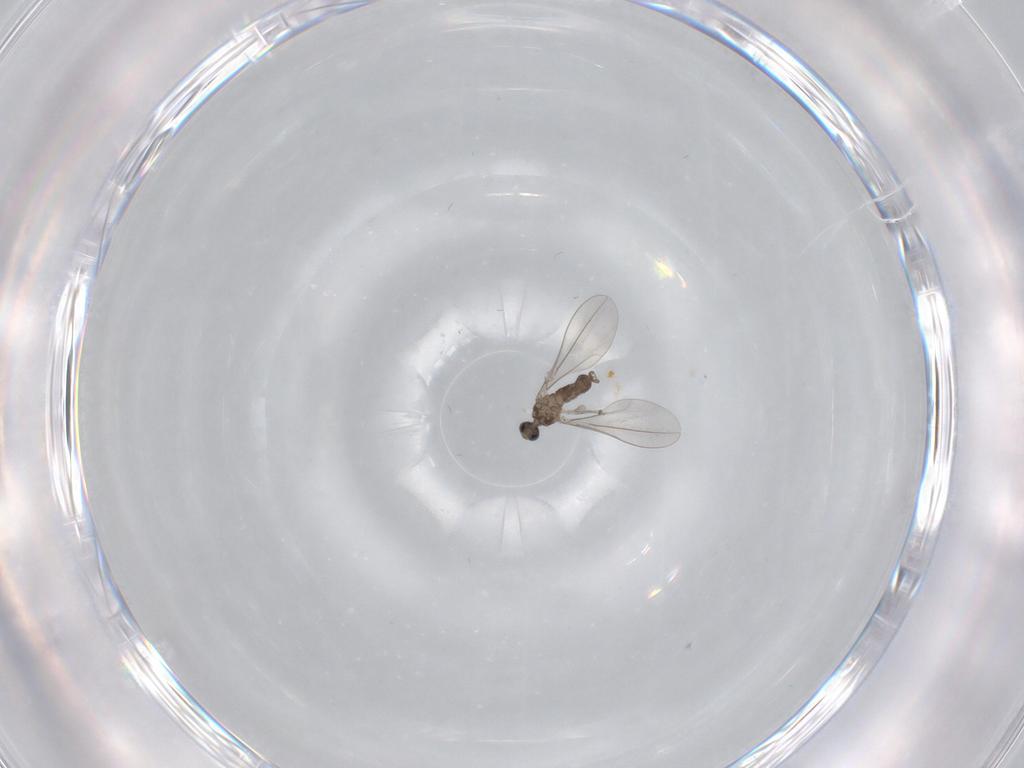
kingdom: Animalia
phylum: Arthropoda
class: Insecta
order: Diptera
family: Cecidomyiidae
